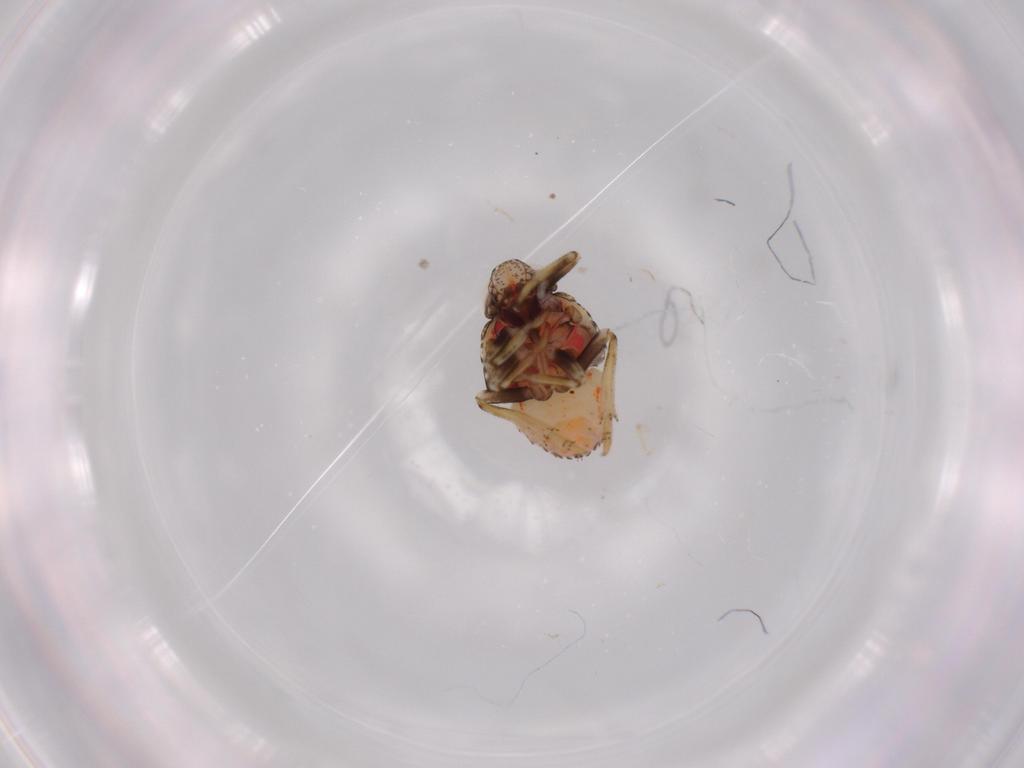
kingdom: Animalia
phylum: Arthropoda
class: Insecta
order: Hemiptera
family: Issidae
